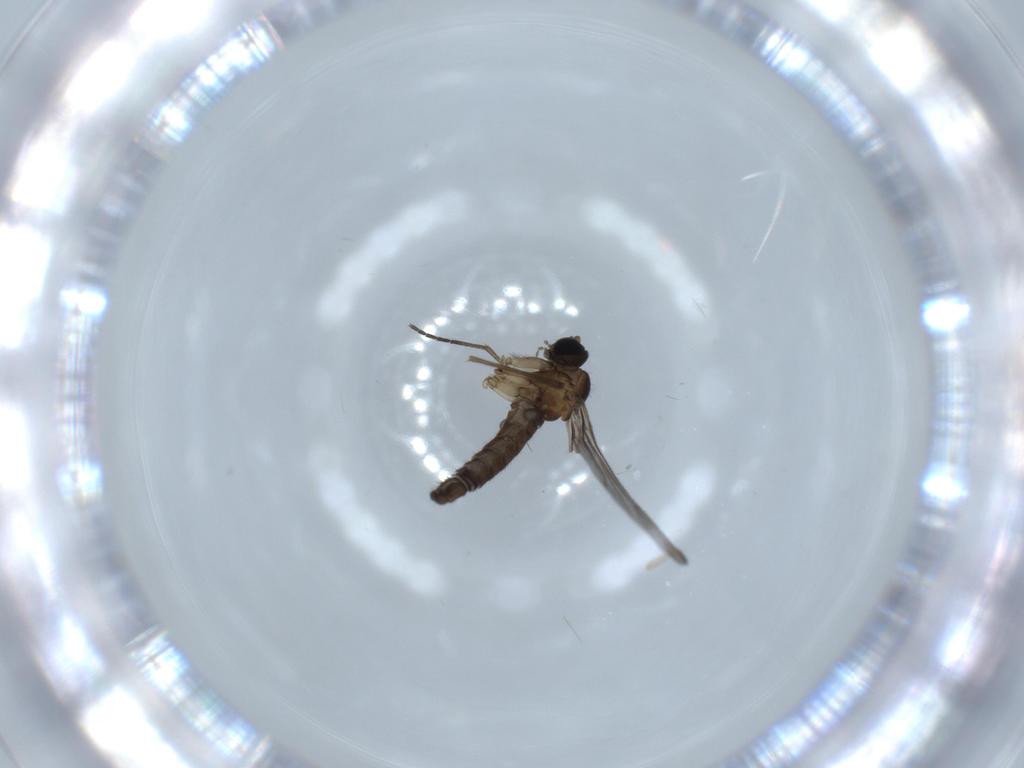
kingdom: Animalia
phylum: Arthropoda
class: Insecta
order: Diptera
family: Sciaridae
